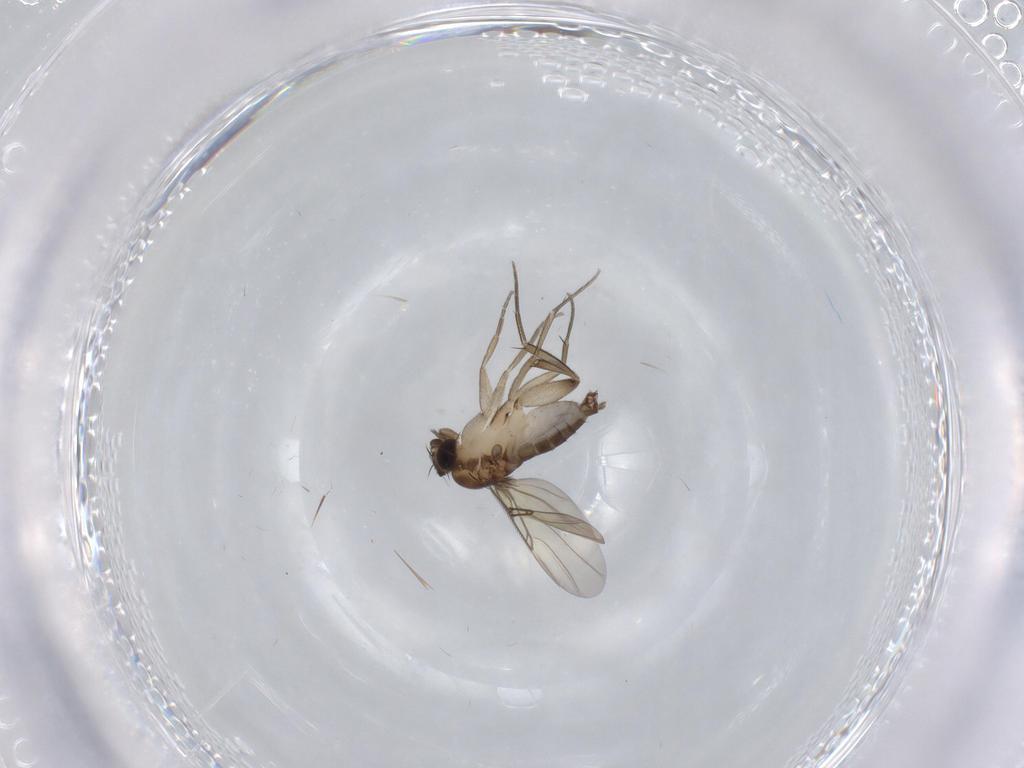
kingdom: Animalia
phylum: Arthropoda
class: Insecta
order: Diptera
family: Phoridae
